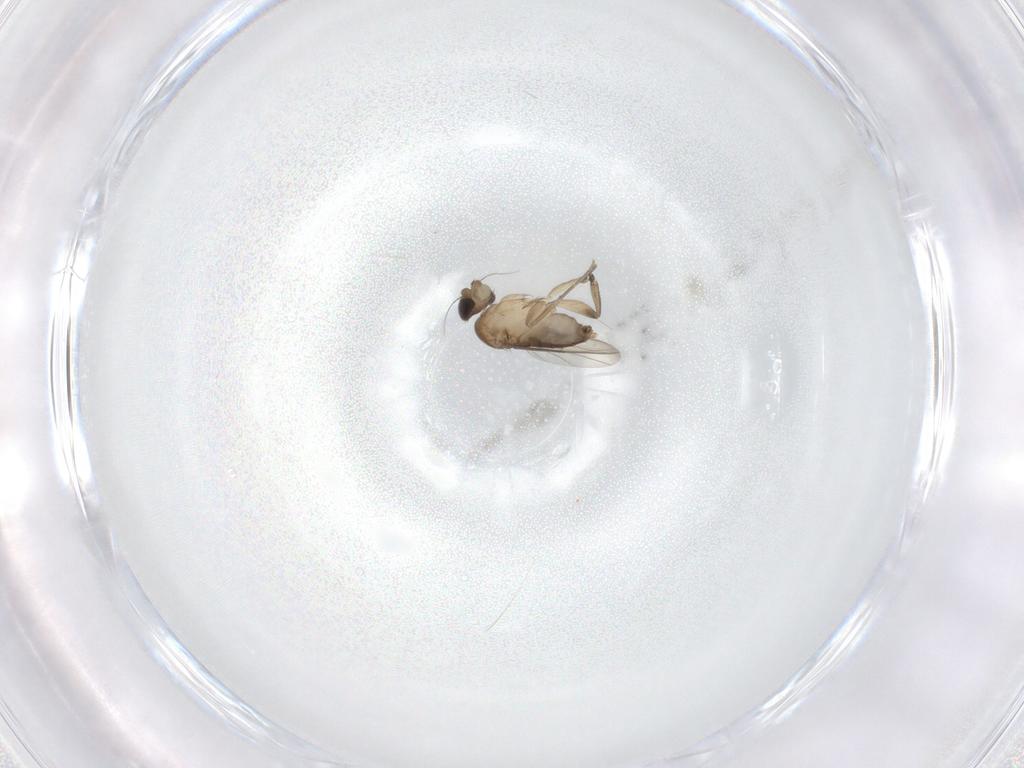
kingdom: Animalia
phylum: Arthropoda
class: Insecta
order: Diptera
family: Phoridae
